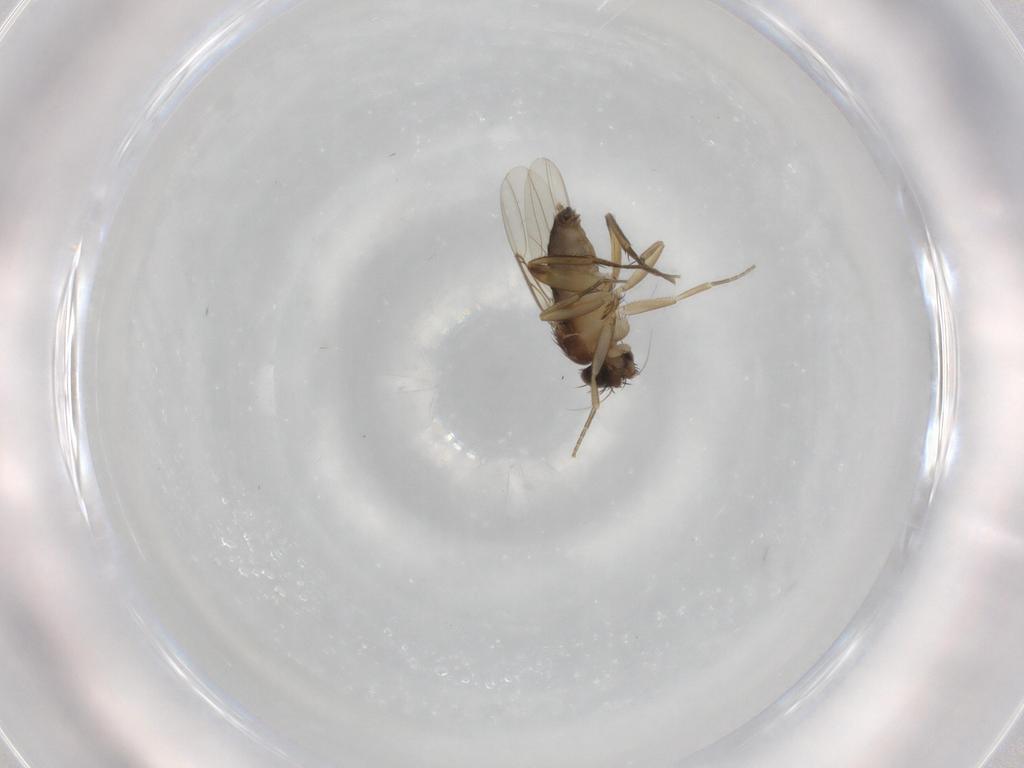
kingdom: Animalia
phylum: Arthropoda
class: Insecta
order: Diptera
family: Phoridae
